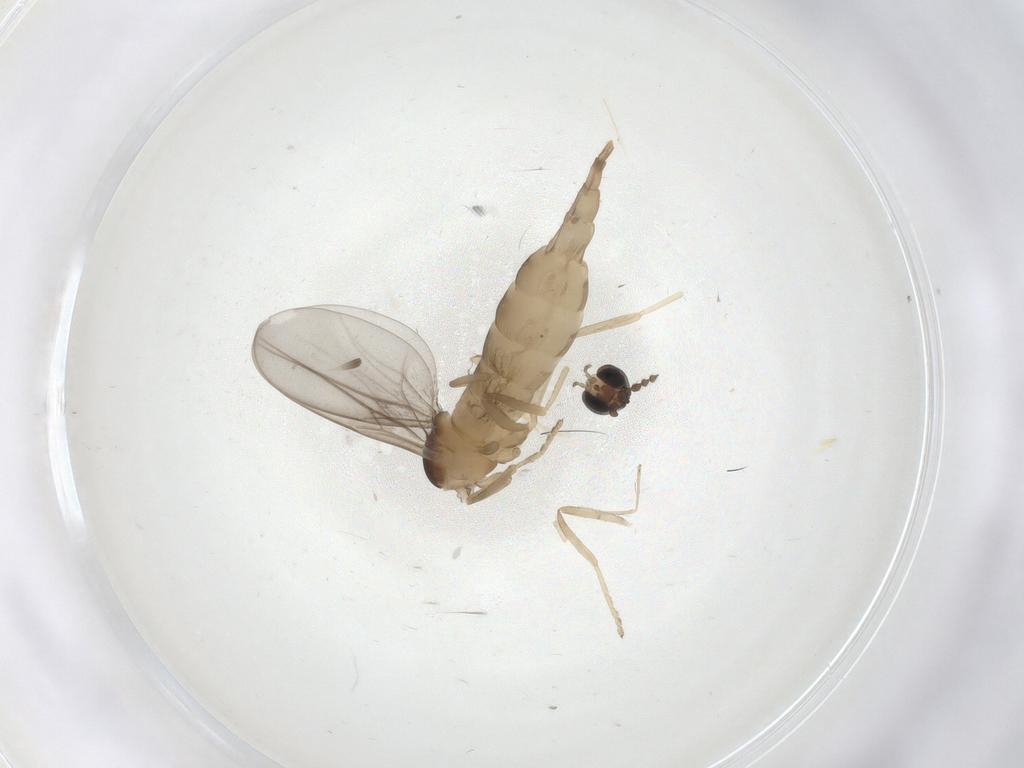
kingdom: Animalia
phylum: Arthropoda
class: Insecta
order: Diptera
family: Cecidomyiidae
